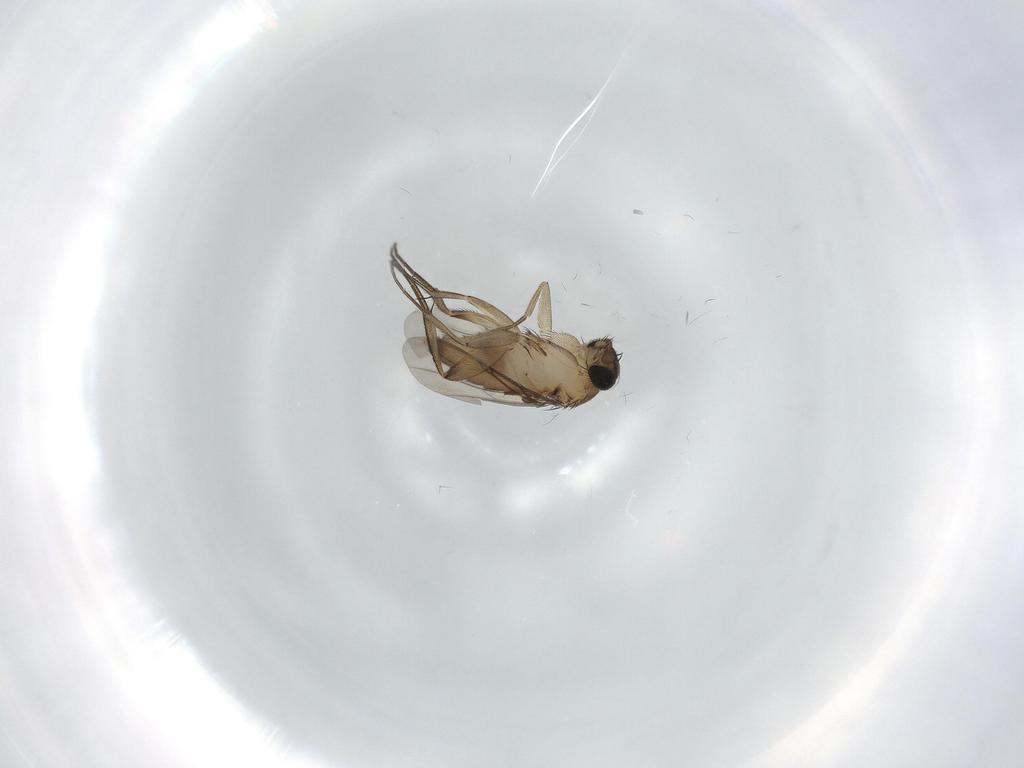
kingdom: Animalia
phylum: Arthropoda
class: Insecta
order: Diptera
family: Phoridae
